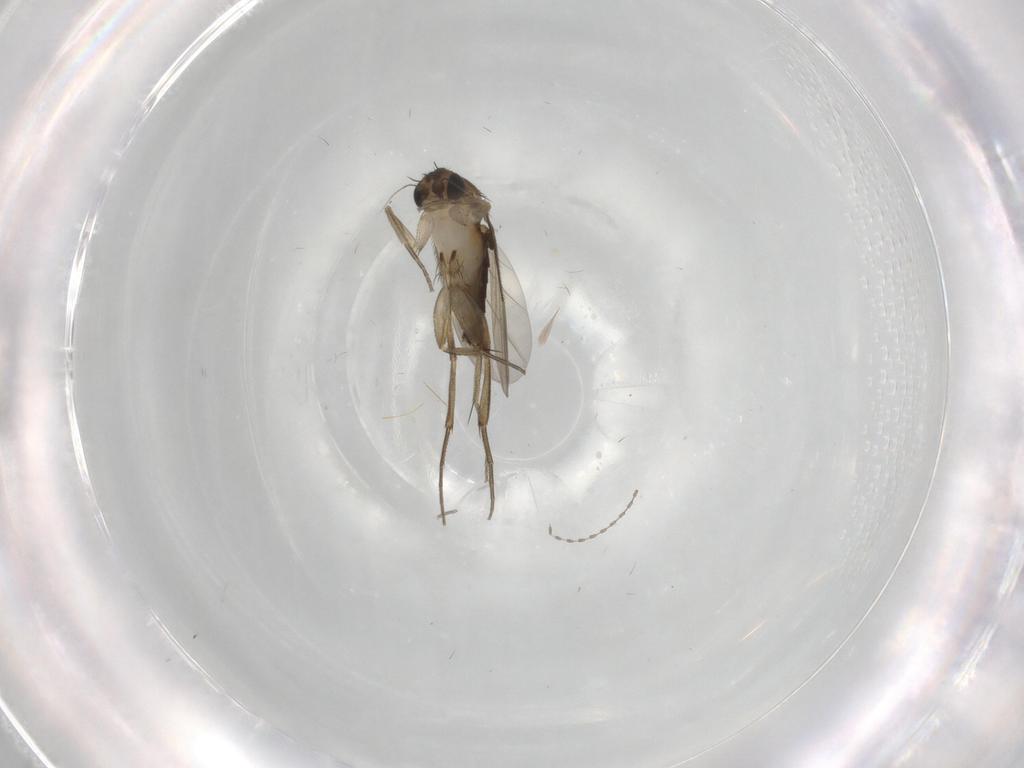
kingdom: Animalia
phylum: Arthropoda
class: Insecta
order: Diptera
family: Phoridae
